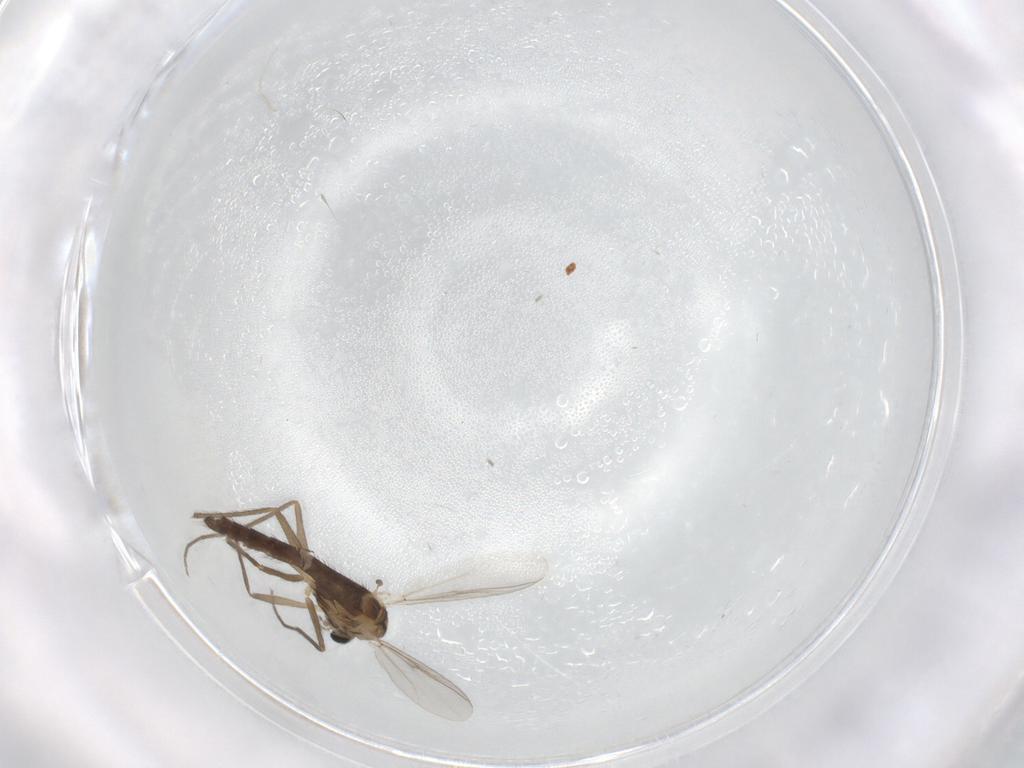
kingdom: Animalia
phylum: Arthropoda
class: Insecta
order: Diptera
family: Chironomidae
